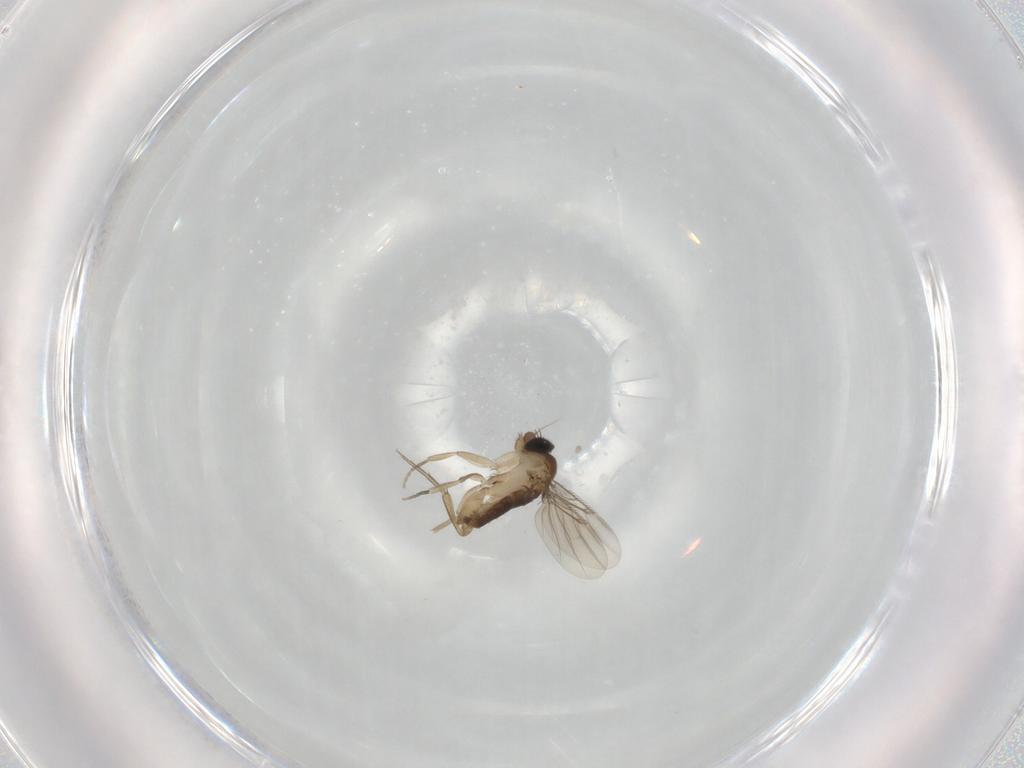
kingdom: Animalia
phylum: Arthropoda
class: Insecta
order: Diptera
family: Phoridae
